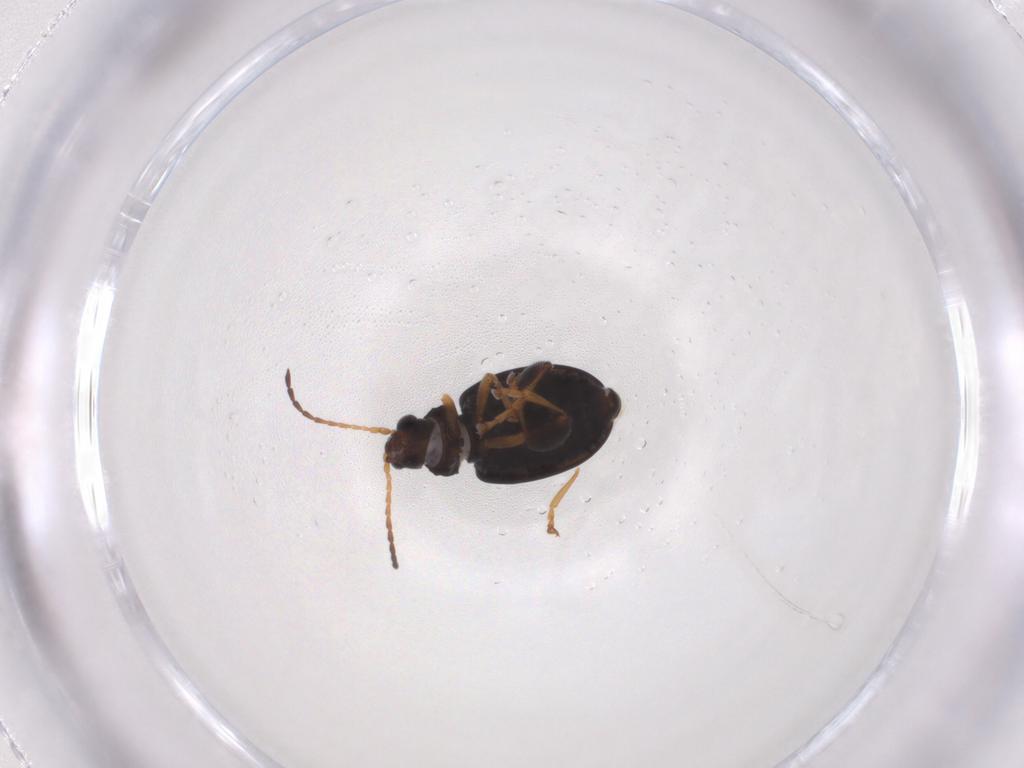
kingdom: Animalia
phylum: Arthropoda
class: Insecta
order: Coleoptera
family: Chrysomelidae
